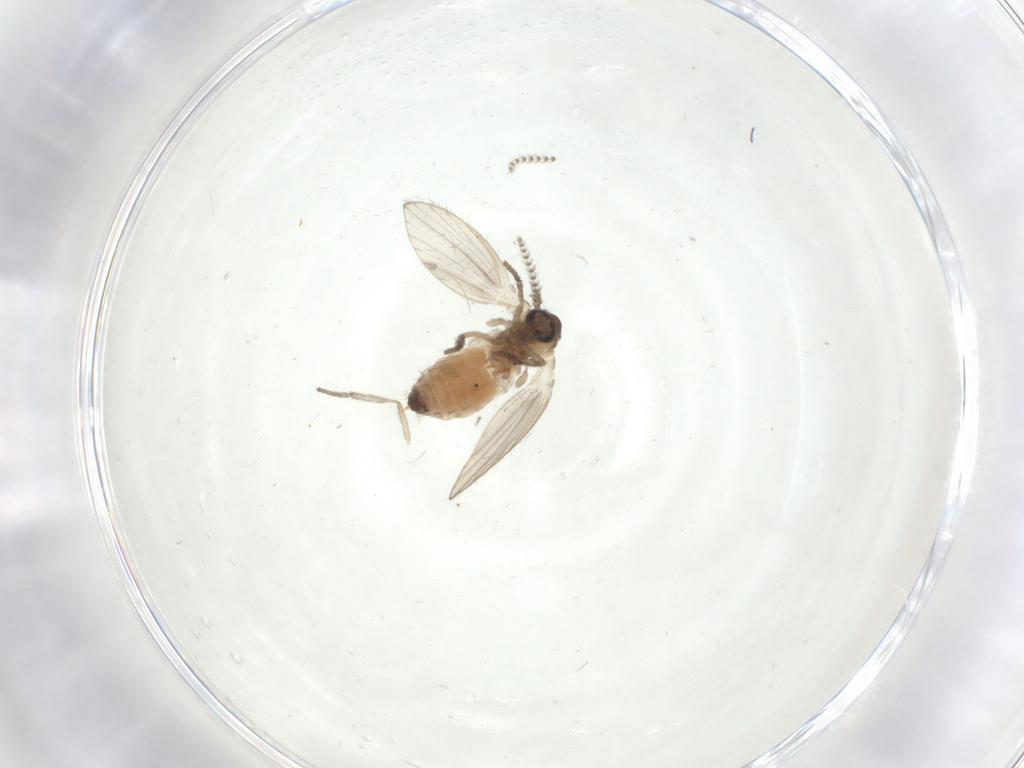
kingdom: Animalia
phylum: Arthropoda
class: Insecta
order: Diptera
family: Psychodidae
